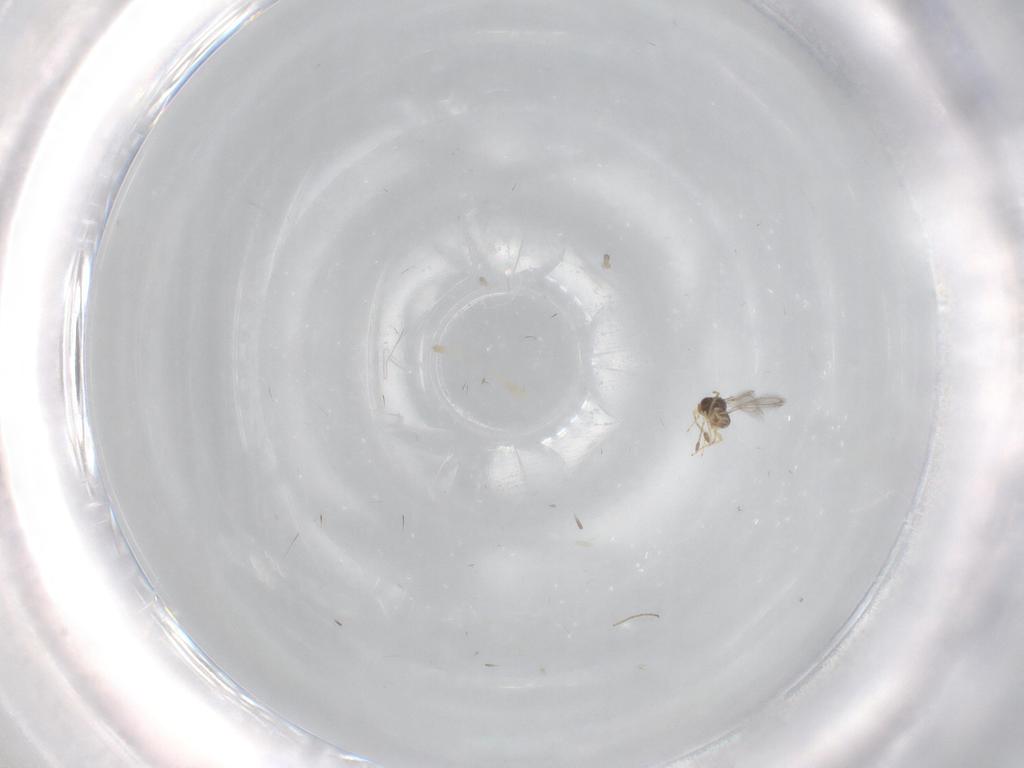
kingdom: Animalia
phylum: Arthropoda
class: Insecta
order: Hymenoptera
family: Mymaridae
